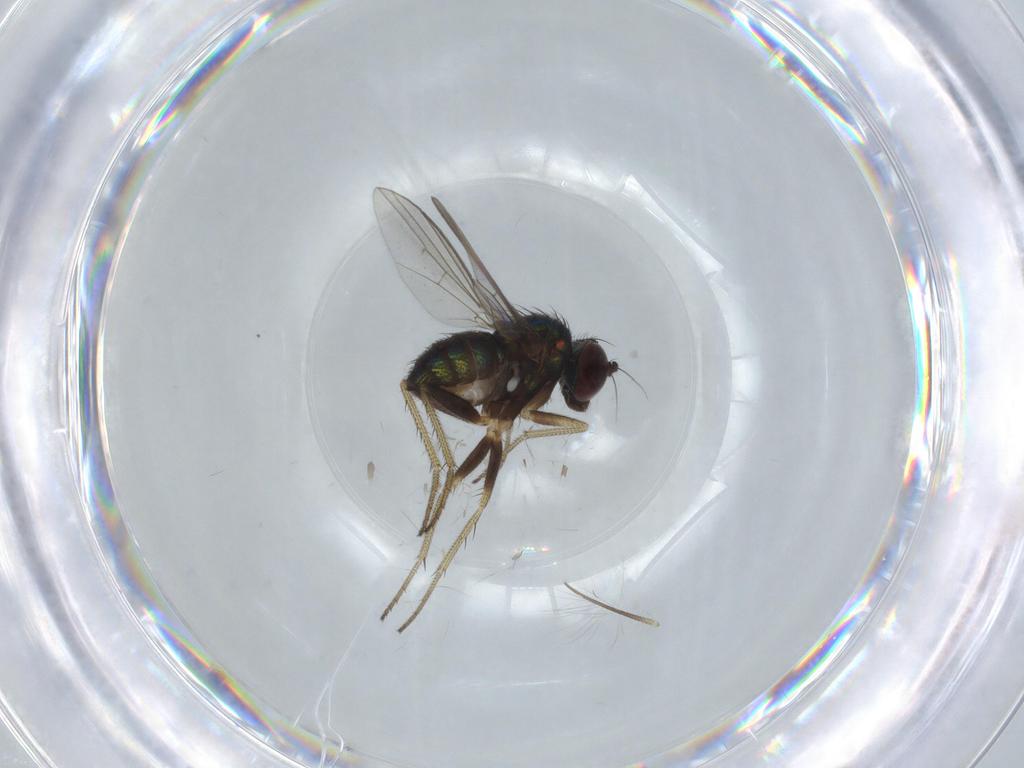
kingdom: Animalia
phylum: Arthropoda
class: Insecta
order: Diptera
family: Dolichopodidae
